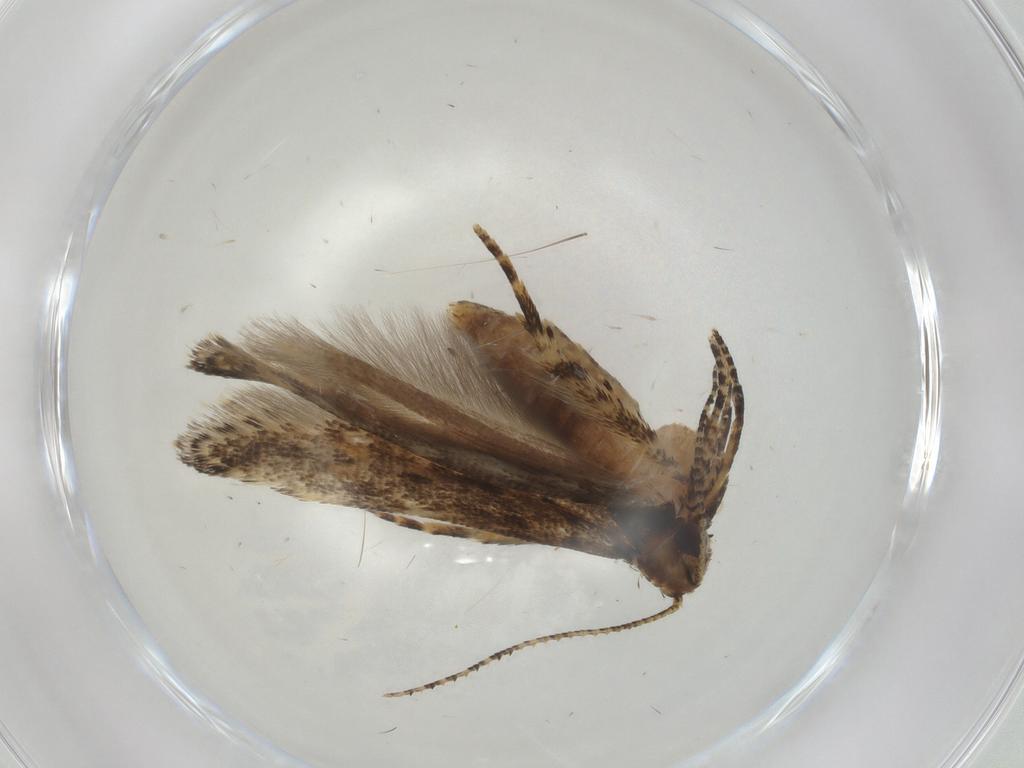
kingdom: Animalia
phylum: Arthropoda
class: Insecta
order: Lepidoptera
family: Gelechiidae
